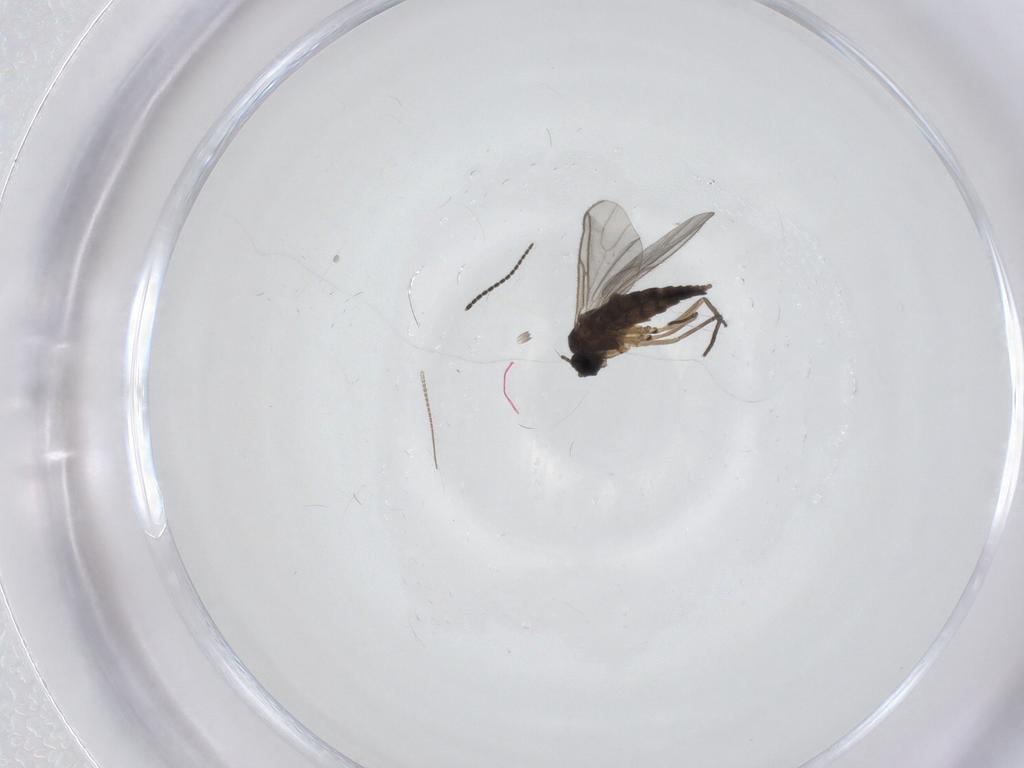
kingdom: Animalia
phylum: Arthropoda
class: Insecta
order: Diptera
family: Sciaridae
